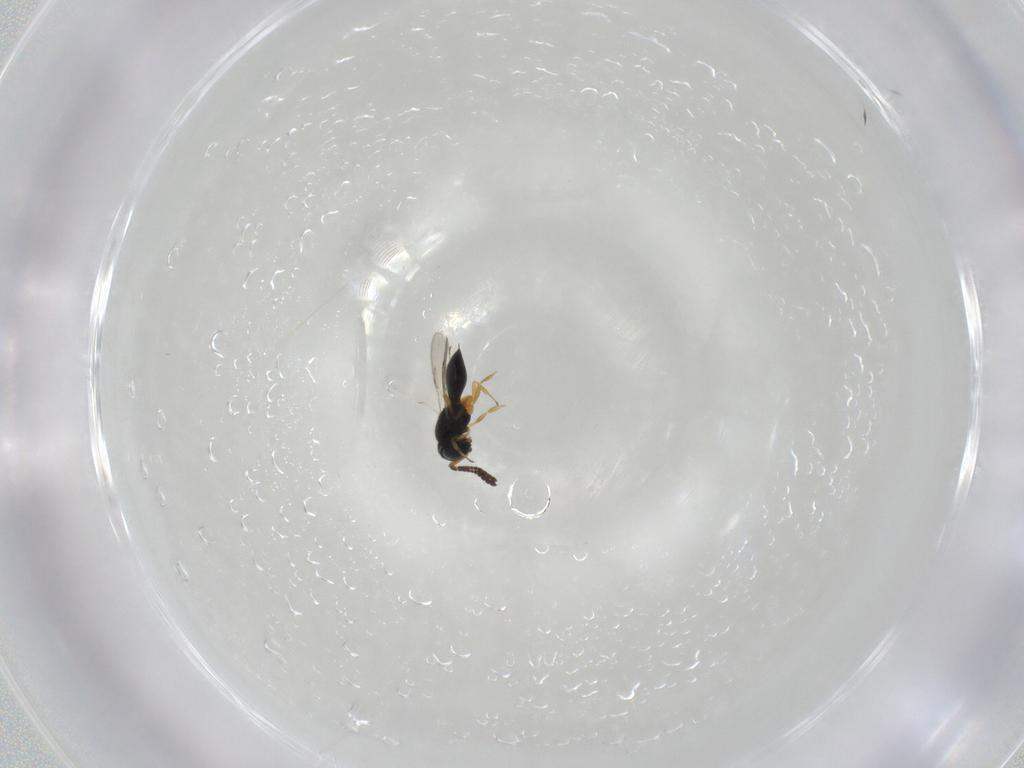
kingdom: Animalia
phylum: Arthropoda
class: Insecta
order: Hymenoptera
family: Scelionidae
